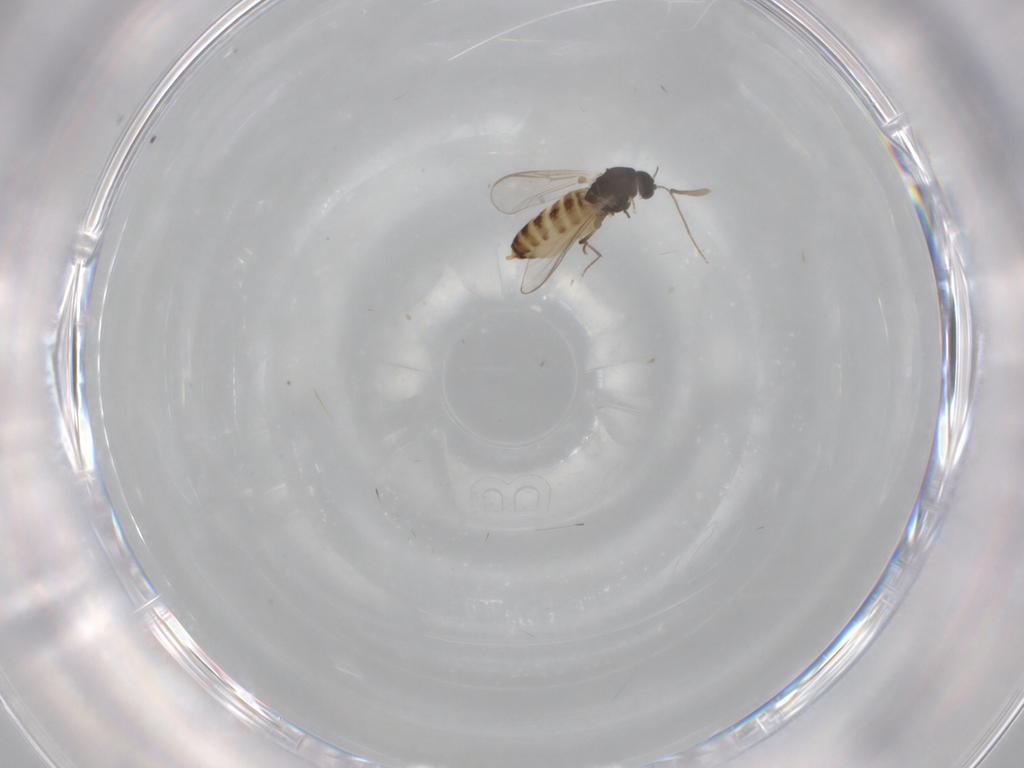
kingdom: Animalia
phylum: Arthropoda
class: Insecta
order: Diptera
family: Chironomidae
